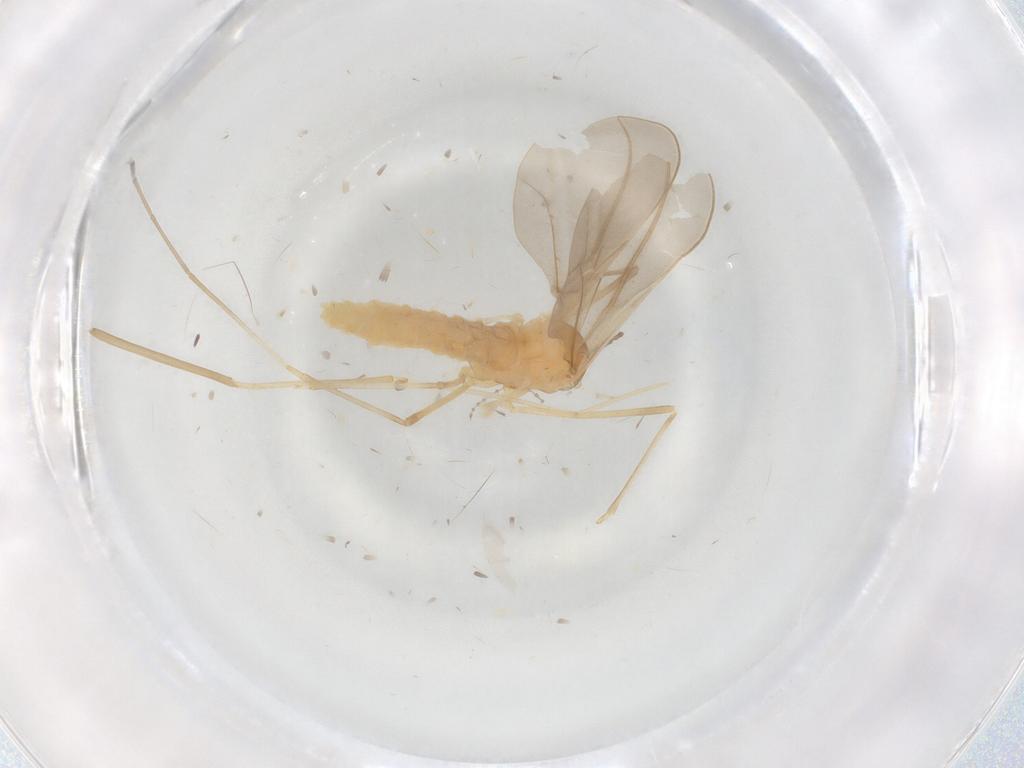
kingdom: Animalia
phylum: Arthropoda
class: Insecta
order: Diptera
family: Cecidomyiidae
